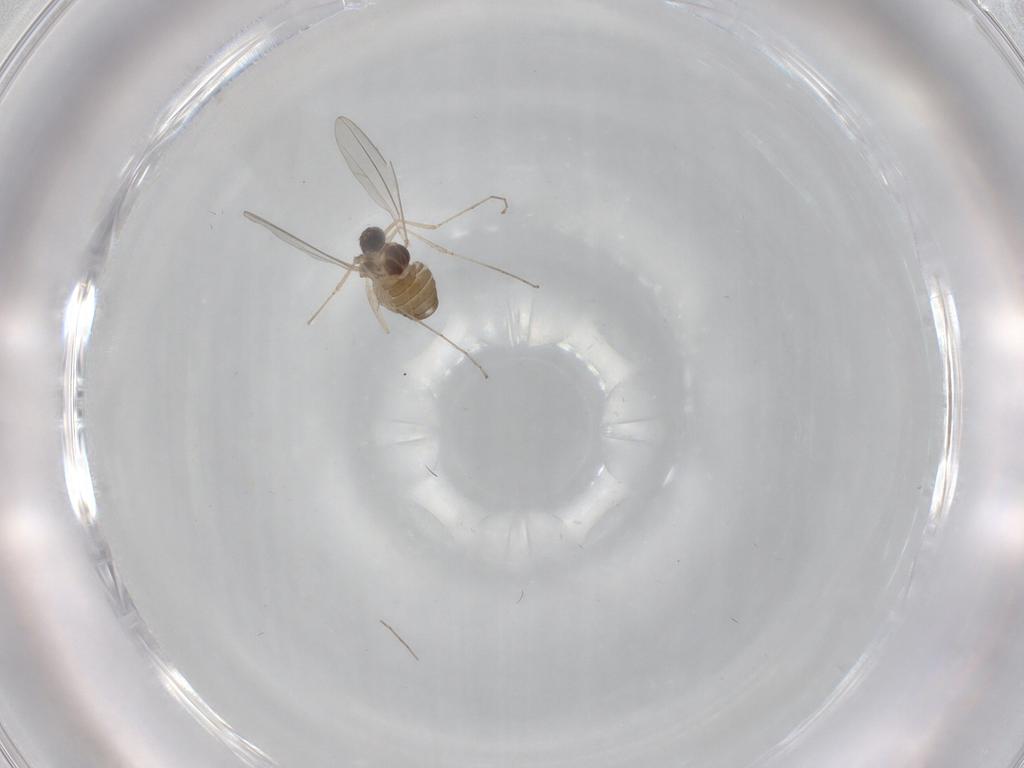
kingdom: Animalia
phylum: Arthropoda
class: Insecta
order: Diptera
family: Cecidomyiidae
